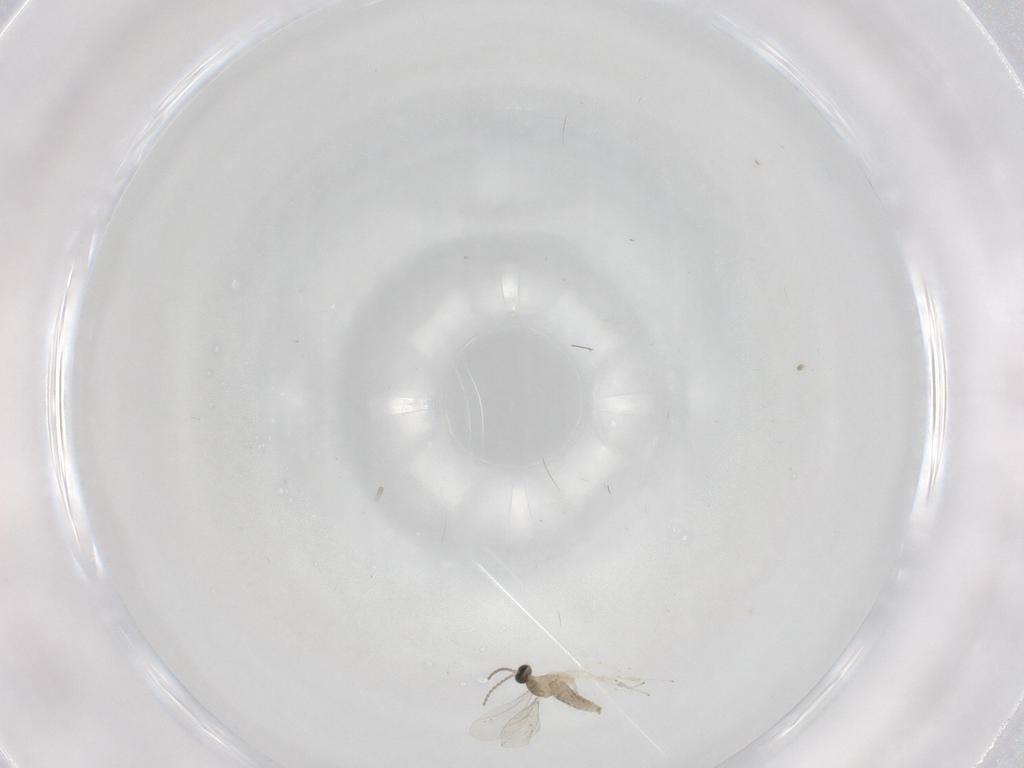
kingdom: Animalia
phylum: Arthropoda
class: Insecta
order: Diptera
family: Cecidomyiidae
